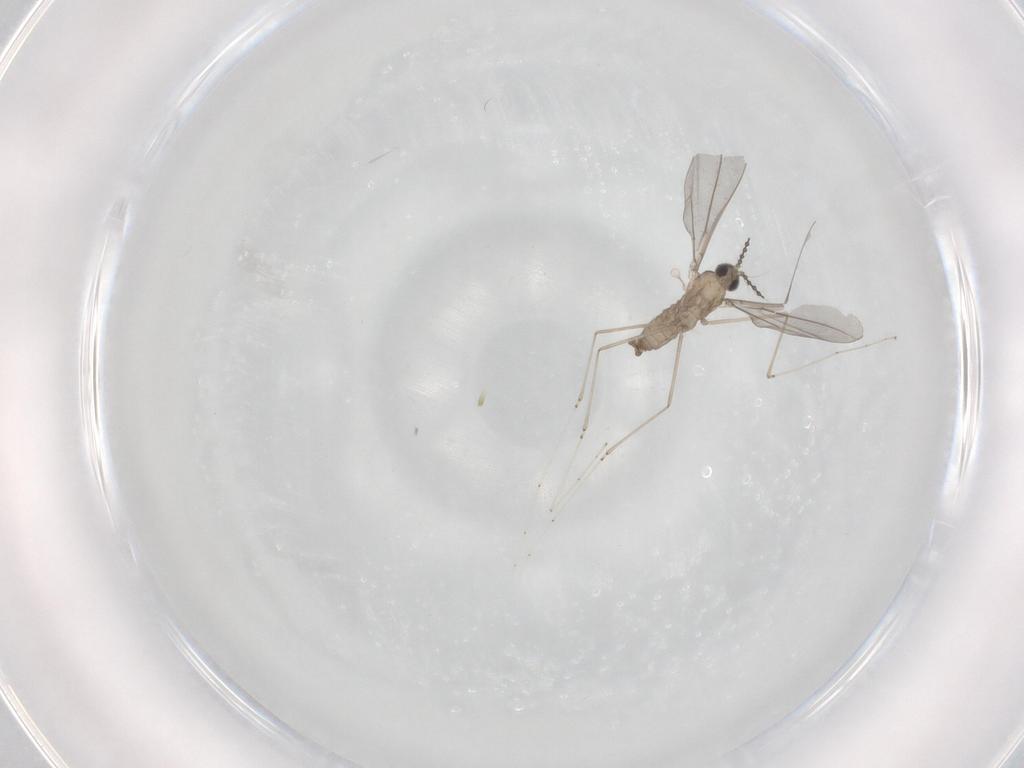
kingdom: Animalia
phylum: Arthropoda
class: Insecta
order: Diptera
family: Cecidomyiidae
